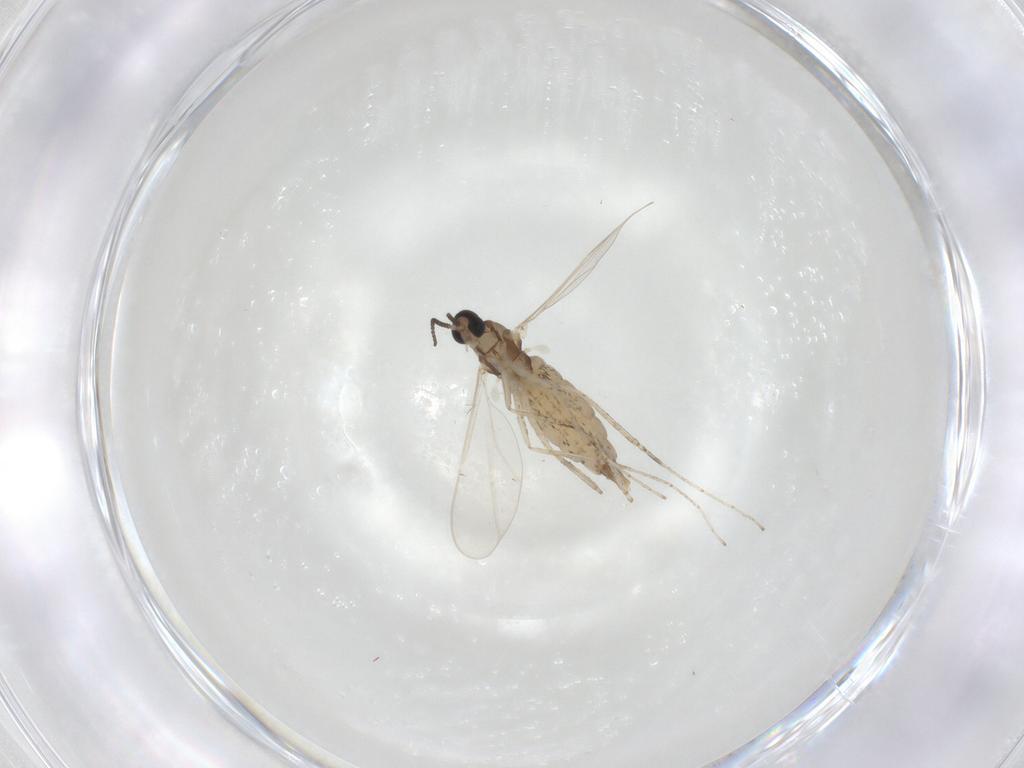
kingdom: Animalia
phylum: Arthropoda
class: Insecta
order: Diptera
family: Cecidomyiidae
